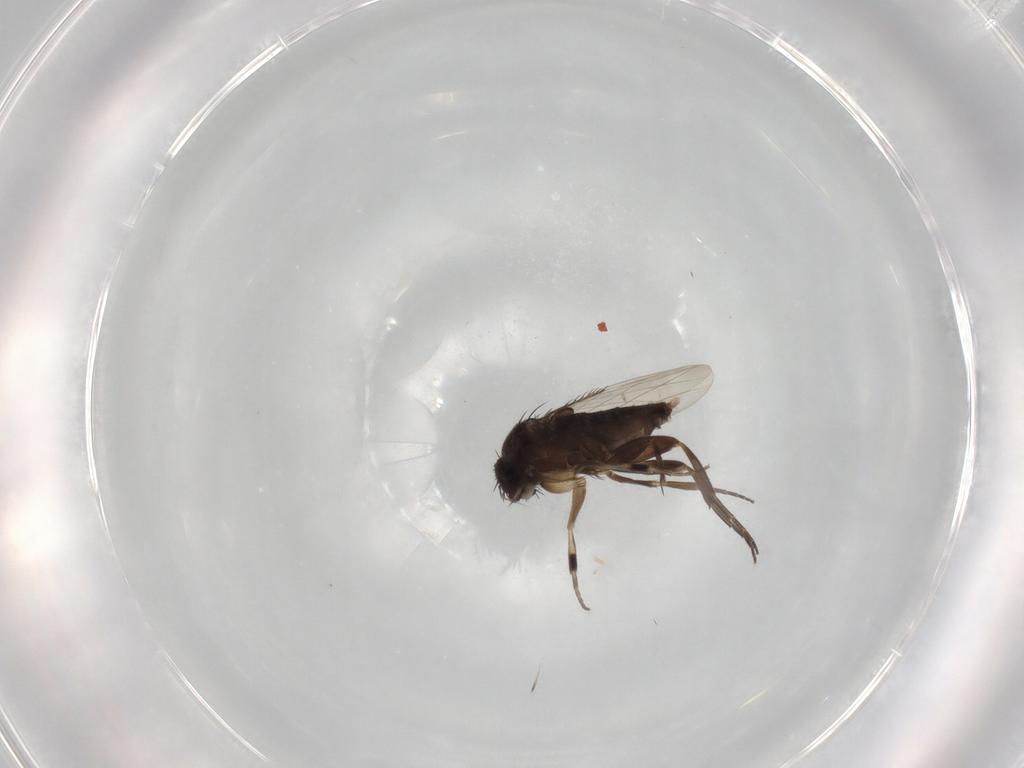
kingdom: Animalia
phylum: Arthropoda
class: Insecta
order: Diptera
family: Phoridae
